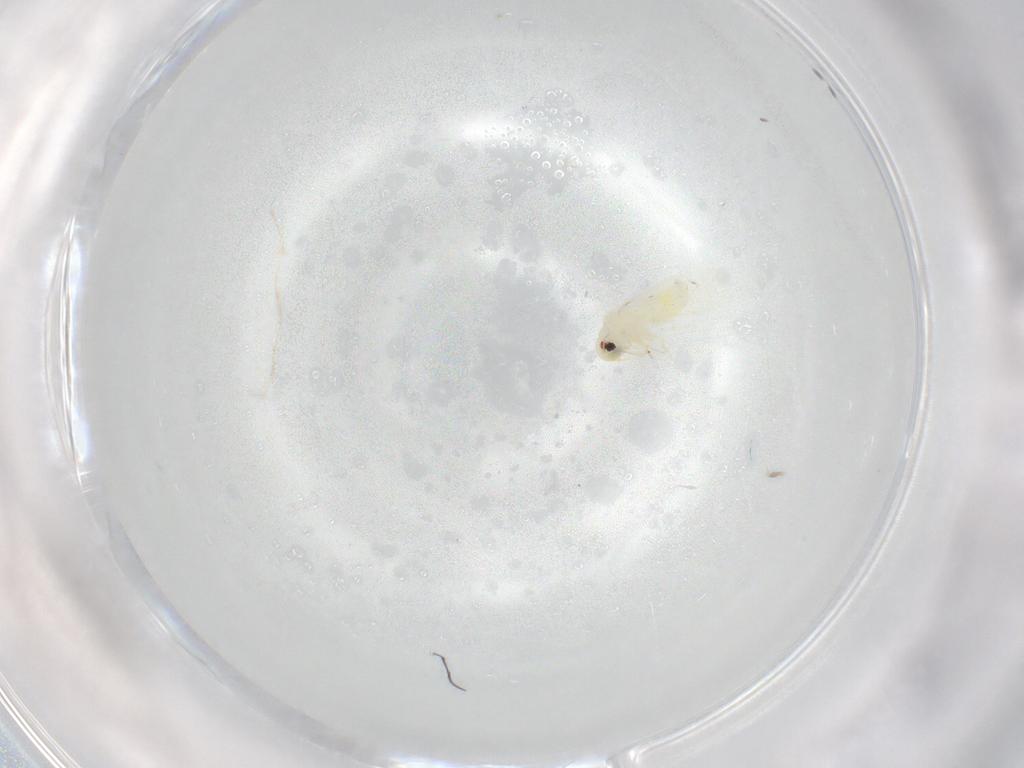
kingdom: Animalia
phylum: Arthropoda
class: Insecta
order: Hemiptera
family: Aleyrodidae
